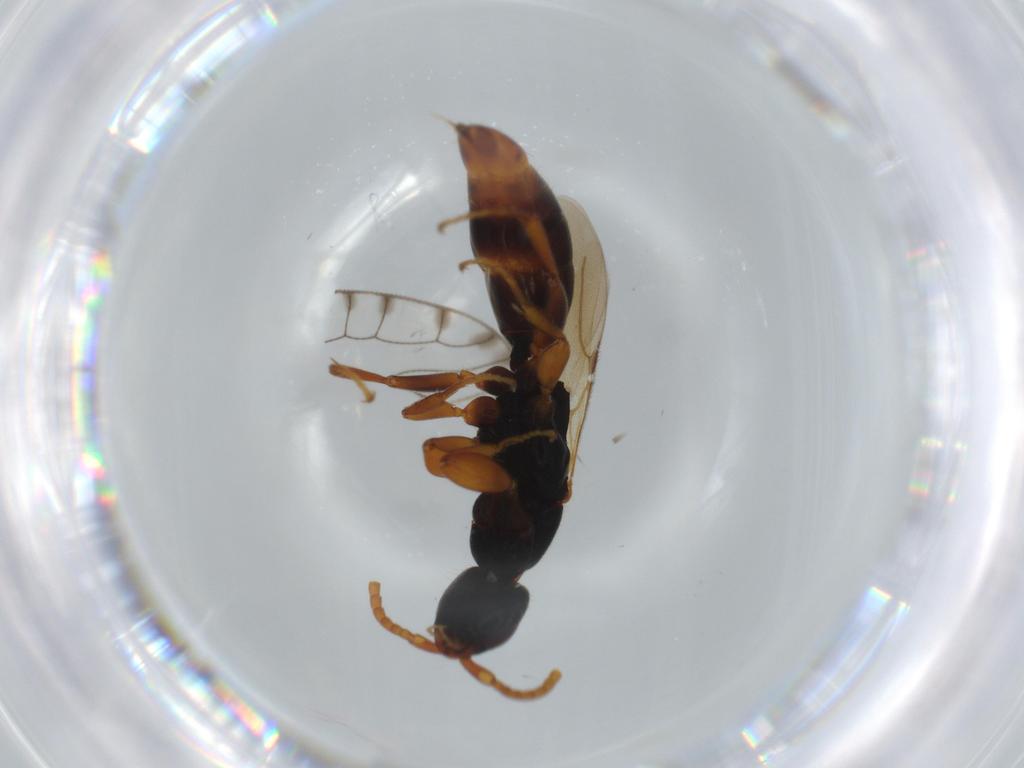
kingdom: Animalia
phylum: Arthropoda
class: Insecta
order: Hymenoptera
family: Bethylidae
